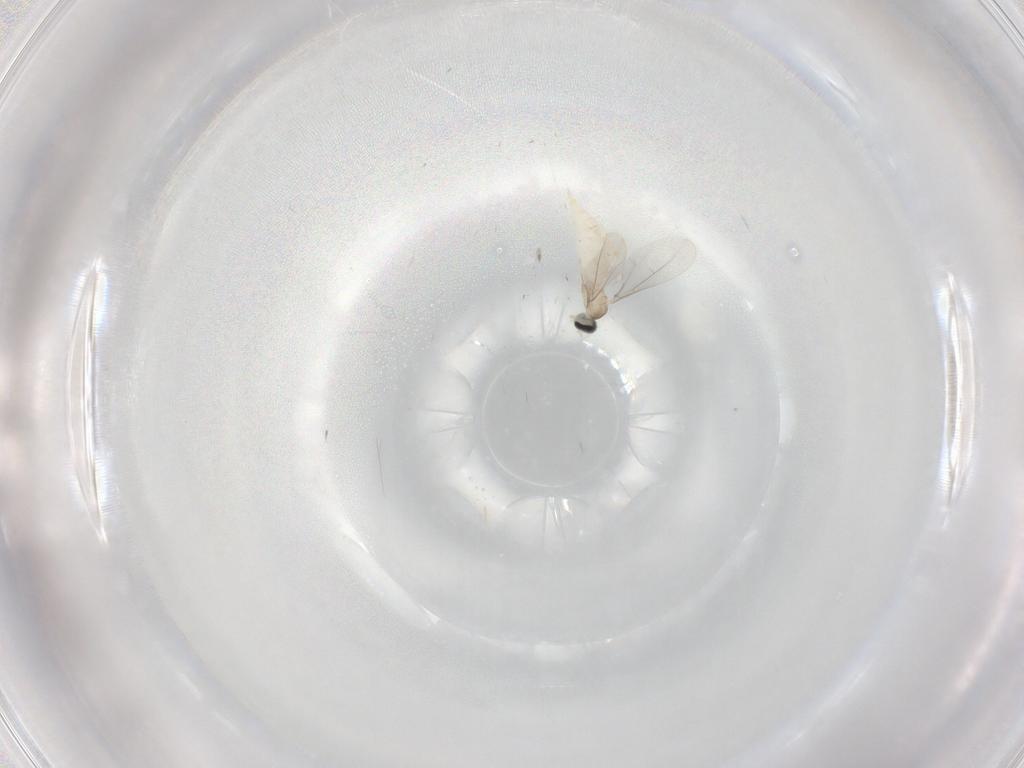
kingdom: Animalia
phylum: Arthropoda
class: Insecta
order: Diptera
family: Cecidomyiidae
